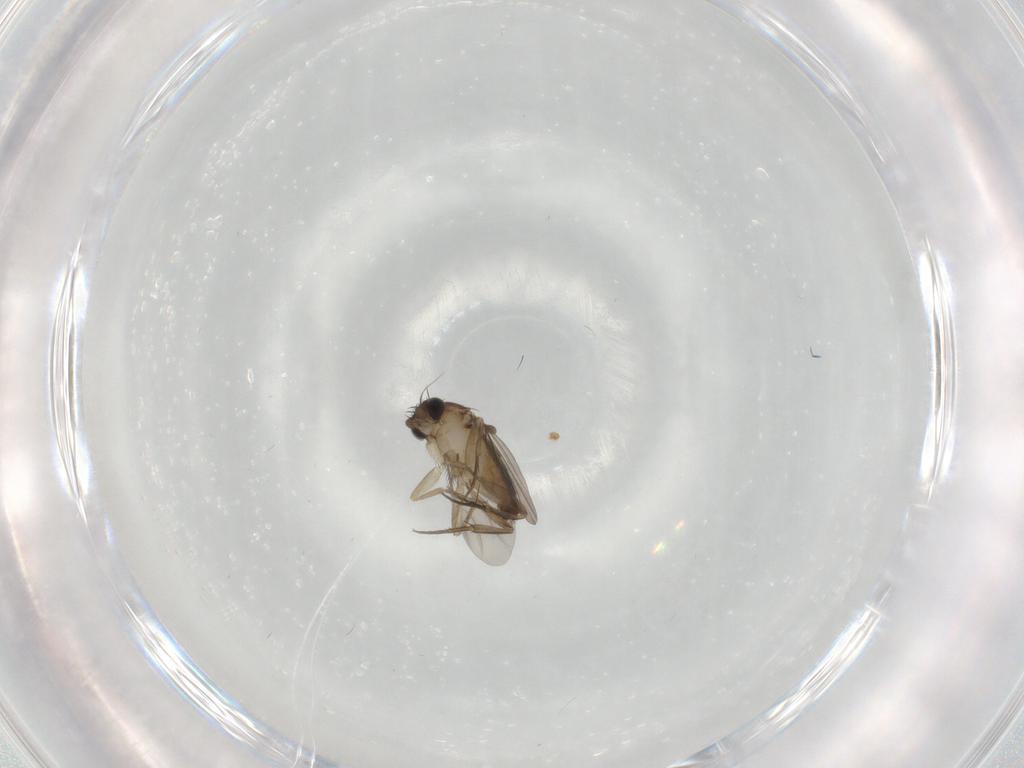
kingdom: Animalia
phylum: Arthropoda
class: Insecta
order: Diptera
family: Phoridae
